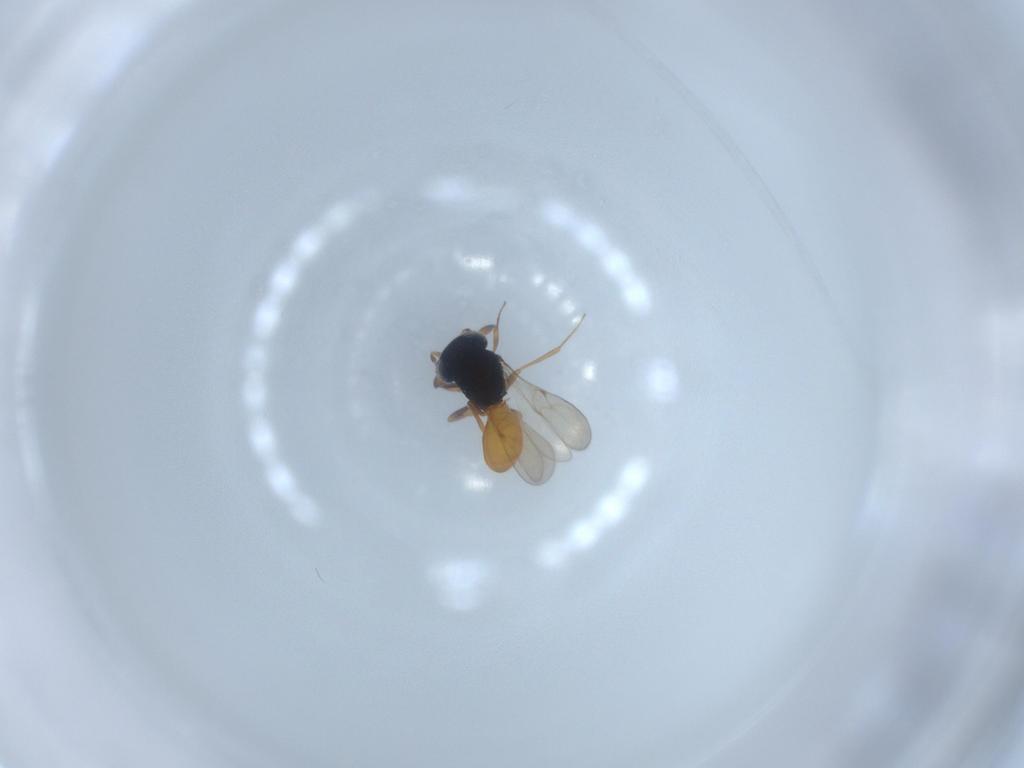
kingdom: Animalia
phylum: Arthropoda
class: Insecta
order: Hymenoptera
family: Scelionidae
